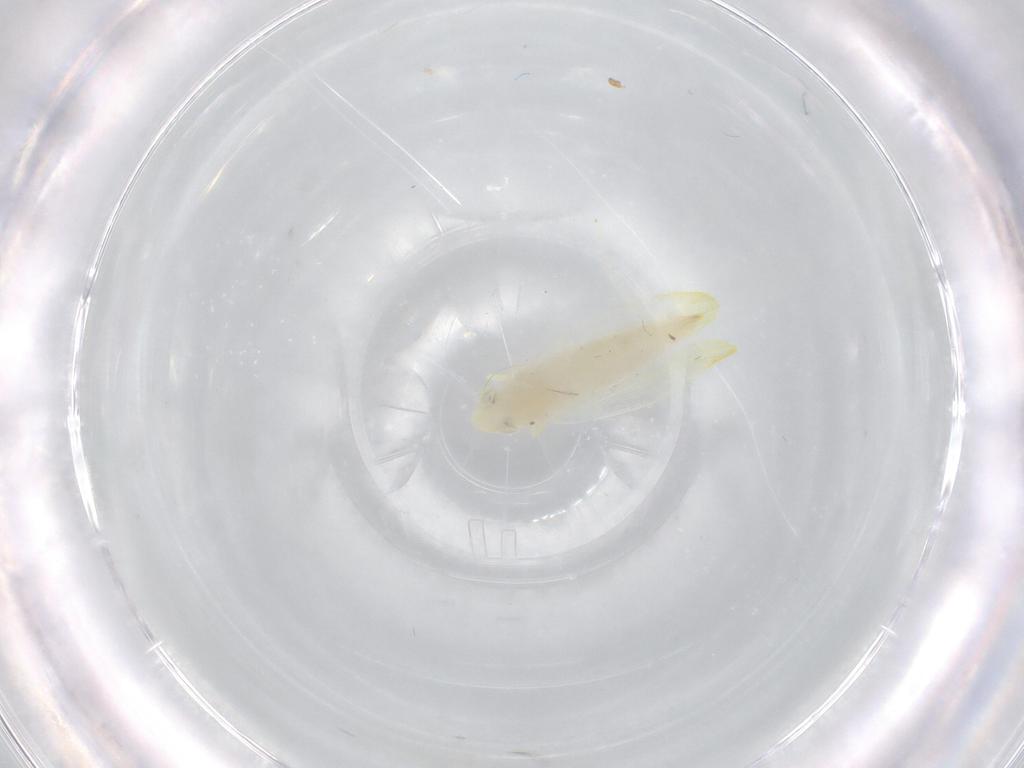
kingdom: Animalia
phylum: Arthropoda
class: Insecta
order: Hemiptera
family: Cicadellidae
